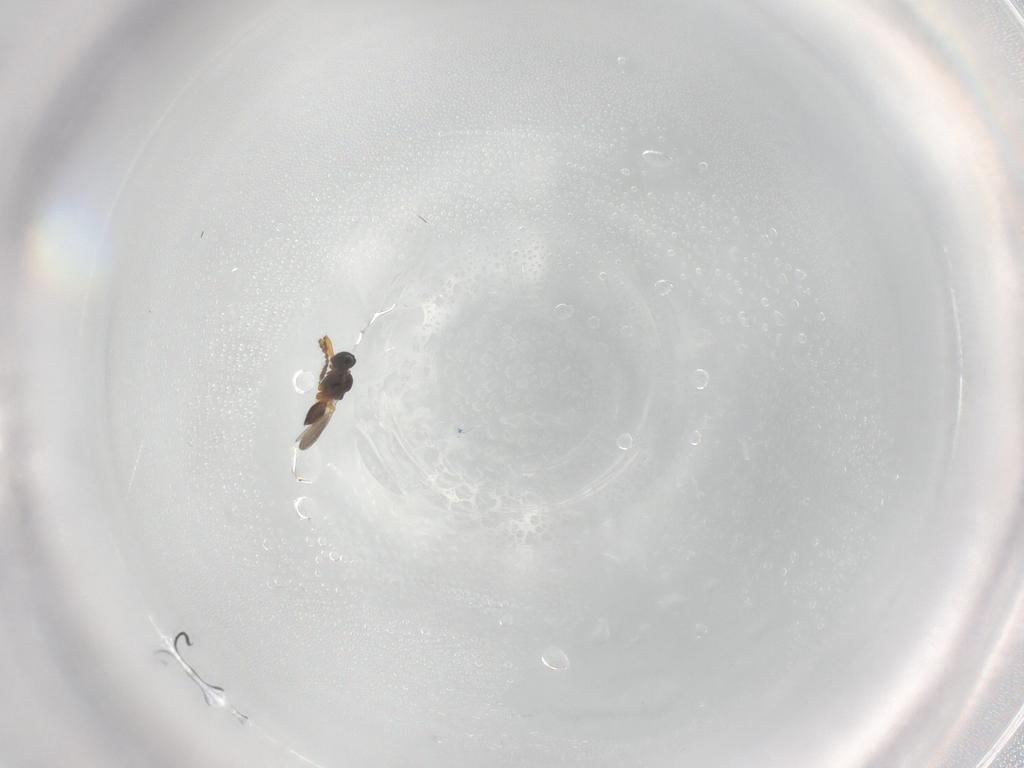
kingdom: Animalia
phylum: Arthropoda
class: Insecta
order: Hymenoptera
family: Platygastridae
